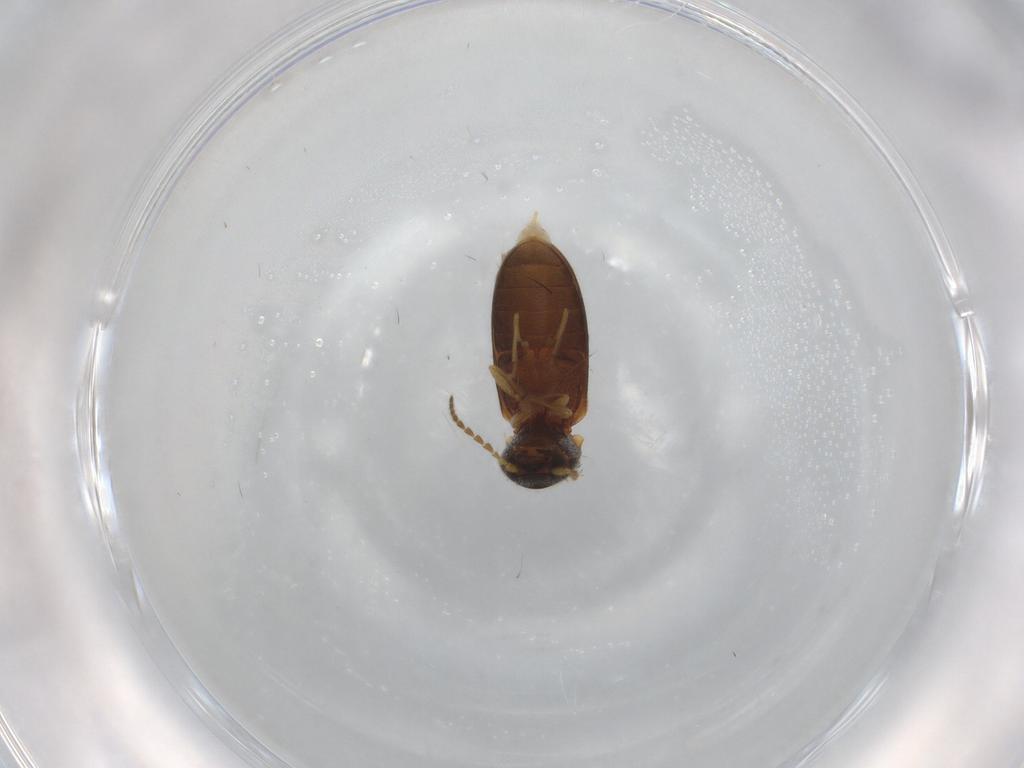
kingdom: Animalia
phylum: Arthropoda
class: Insecta
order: Coleoptera
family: Elateridae
